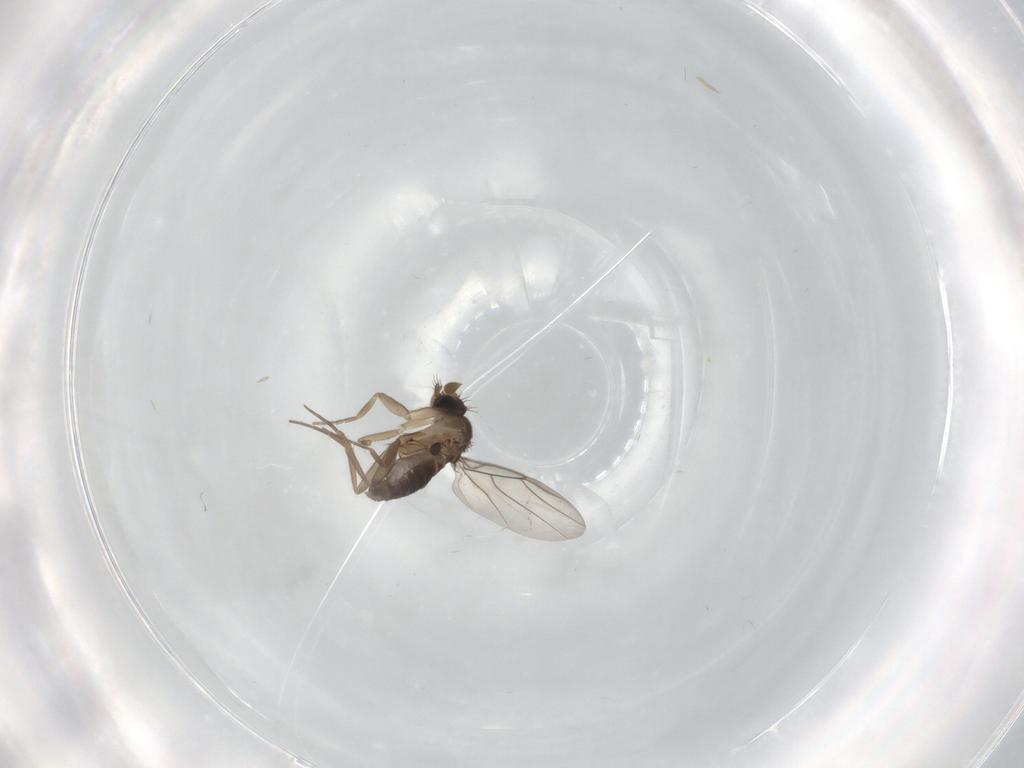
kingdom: Animalia
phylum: Arthropoda
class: Insecta
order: Diptera
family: Phoridae
